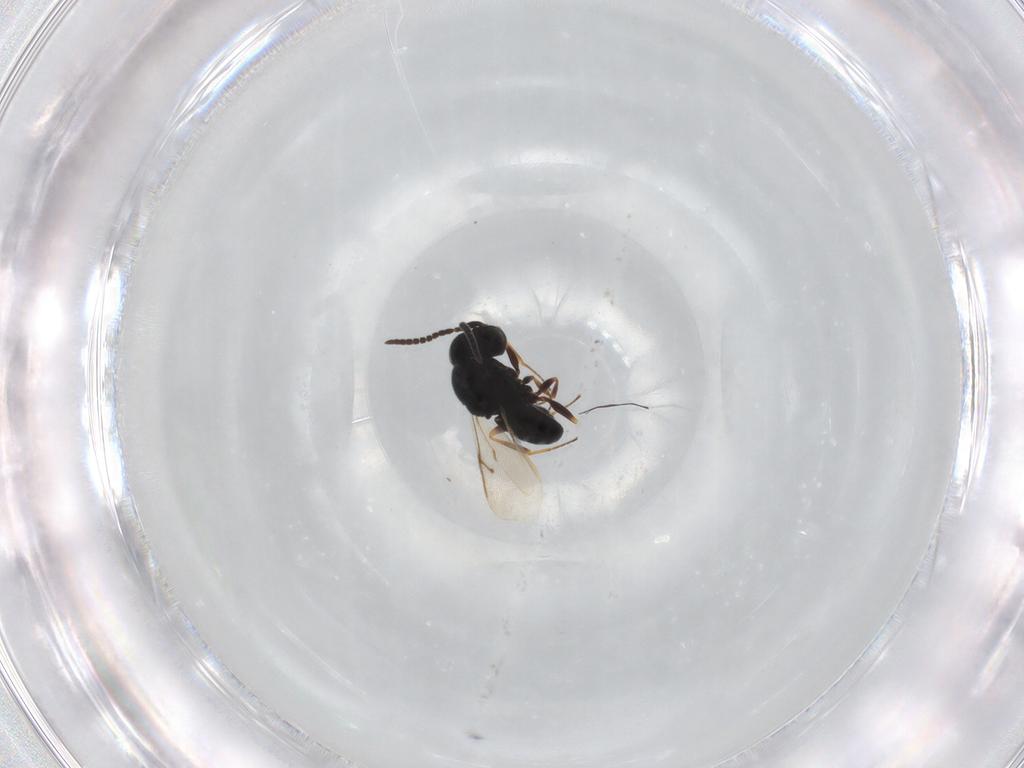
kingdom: Animalia
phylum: Arthropoda
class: Insecta
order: Hymenoptera
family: Scelionidae
